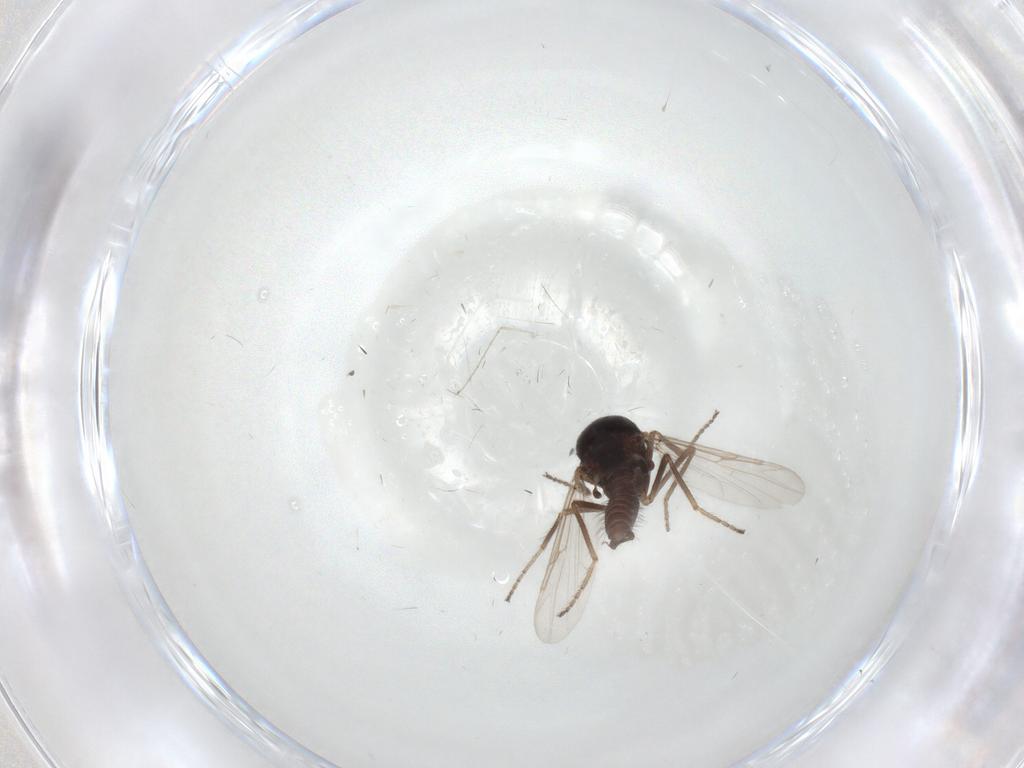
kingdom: Animalia
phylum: Arthropoda
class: Insecta
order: Diptera
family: Ceratopogonidae
